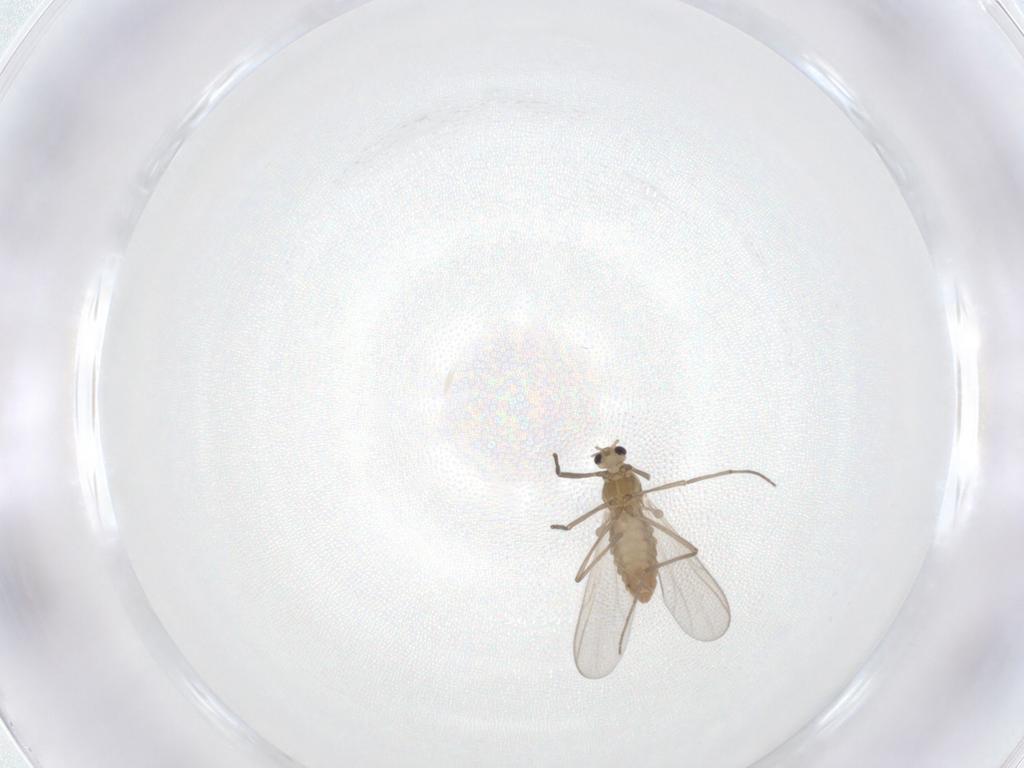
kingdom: Animalia
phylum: Arthropoda
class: Insecta
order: Diptera
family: Chironomidae
